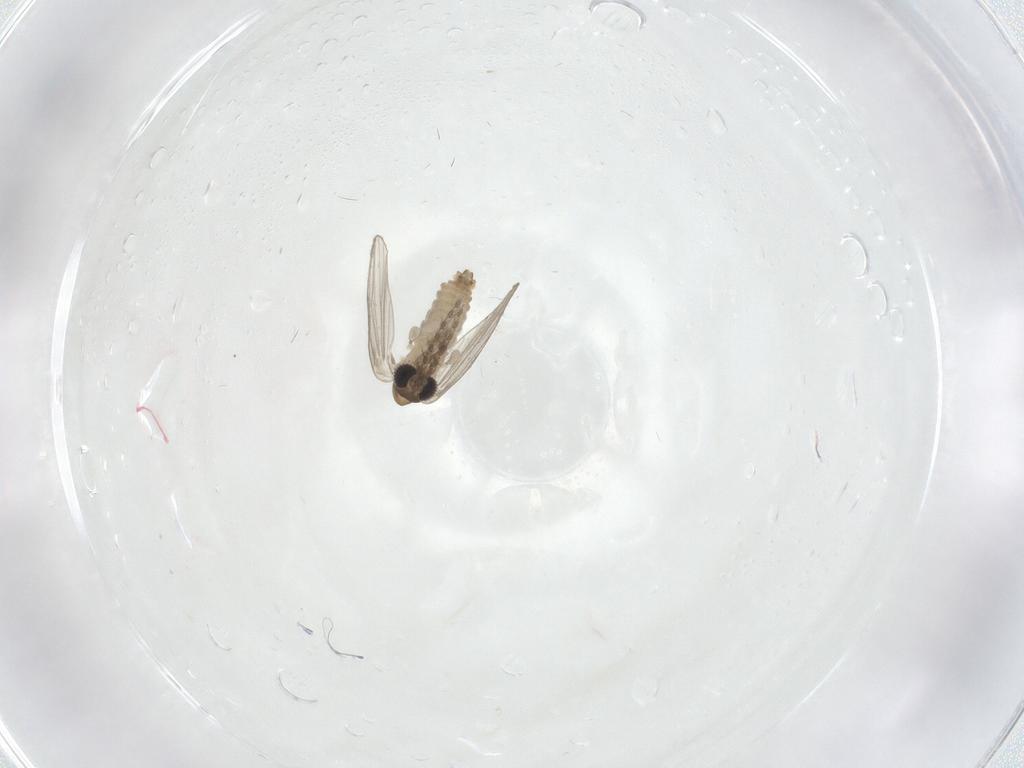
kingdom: Animalia
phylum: Arthropoda
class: Insecta
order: Diptera
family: Psychodidae
